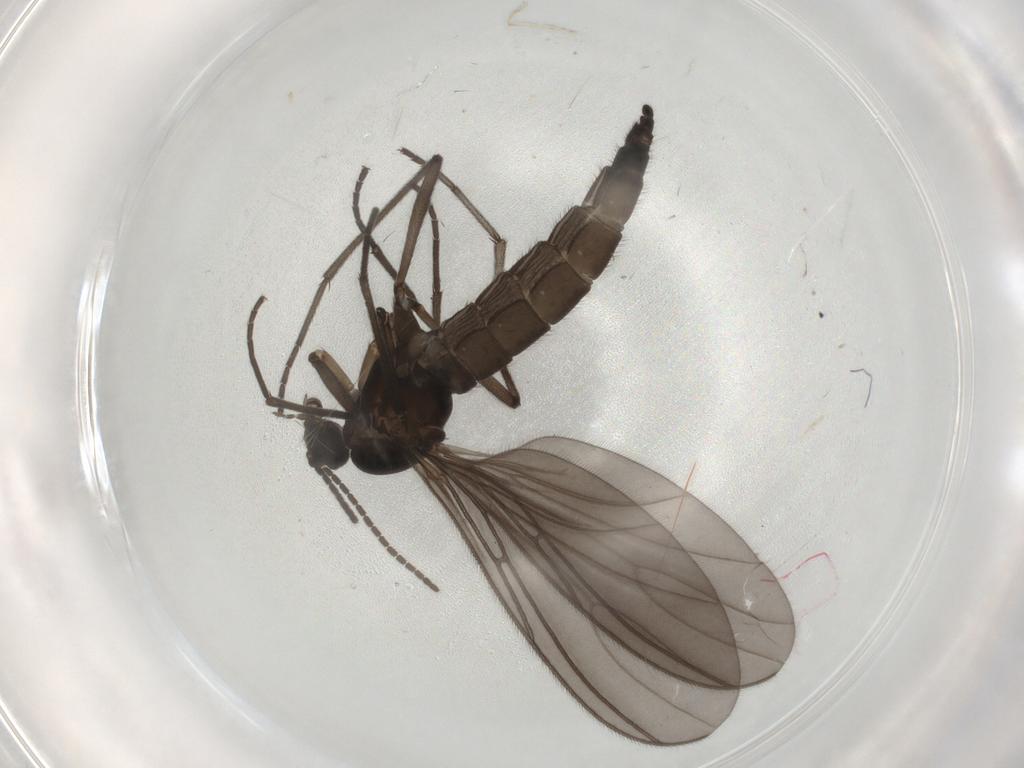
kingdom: Animalia
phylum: Arthropoda
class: Insecta
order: Diptera
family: Sciaridae
